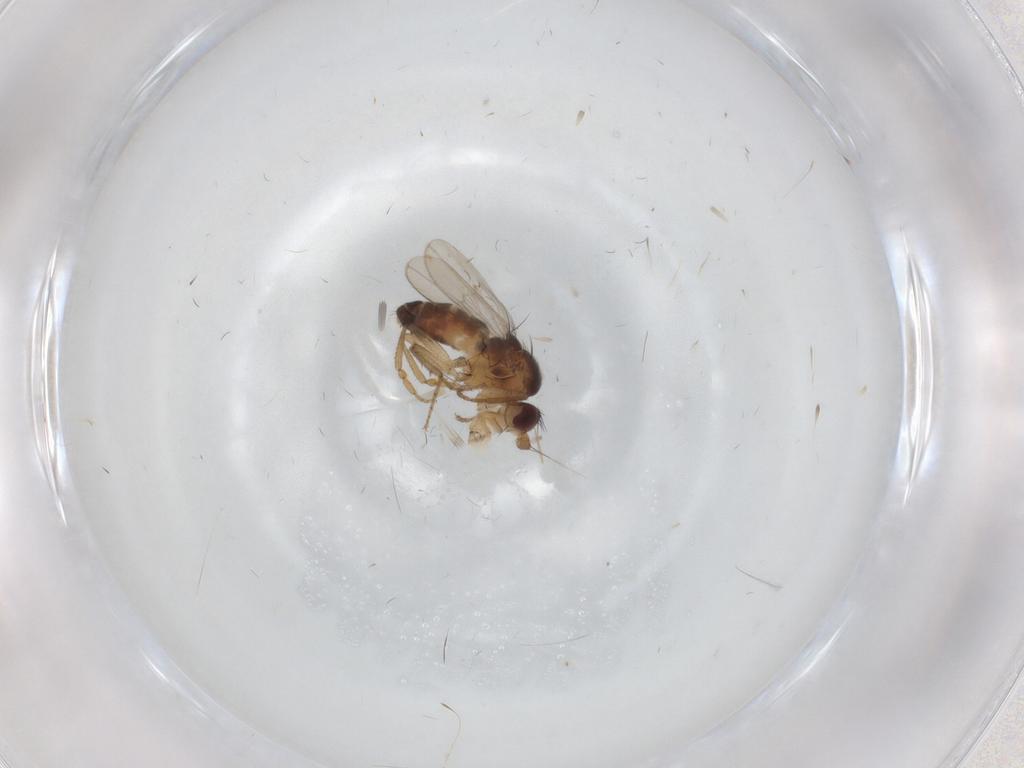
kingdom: Animalia
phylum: Arthropoda
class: Insecta
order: Diptera
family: Sphaeroceridae
